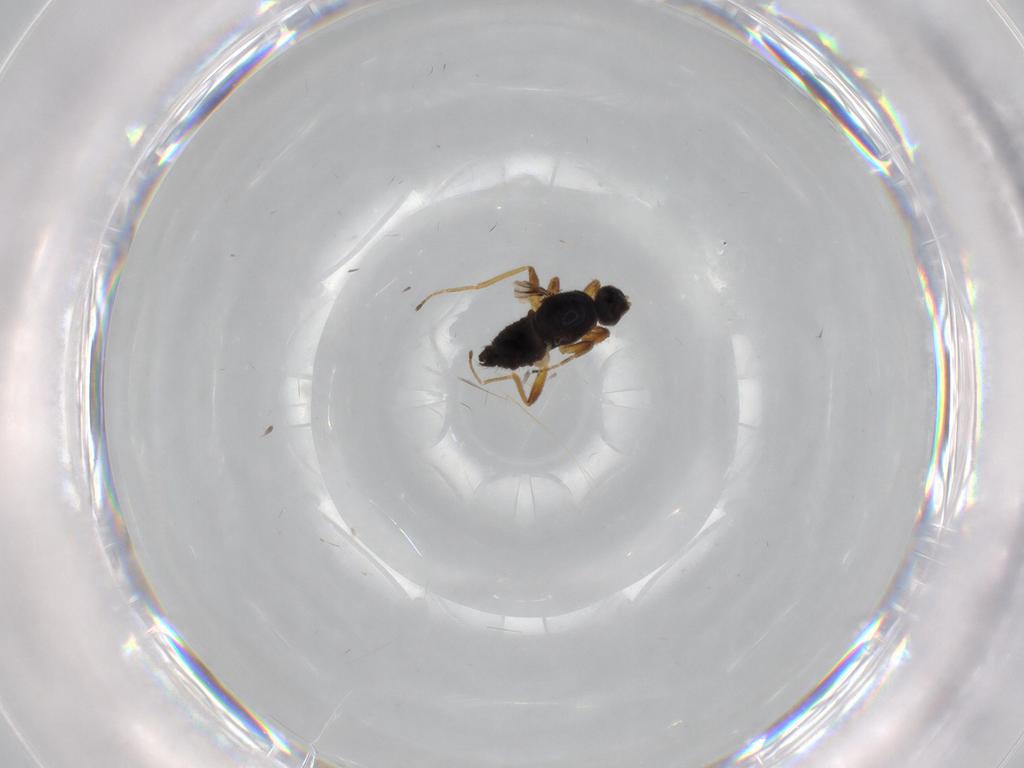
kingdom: Animalia
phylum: Arthropoda
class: Insecta
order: Diptera
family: Hybotidae
